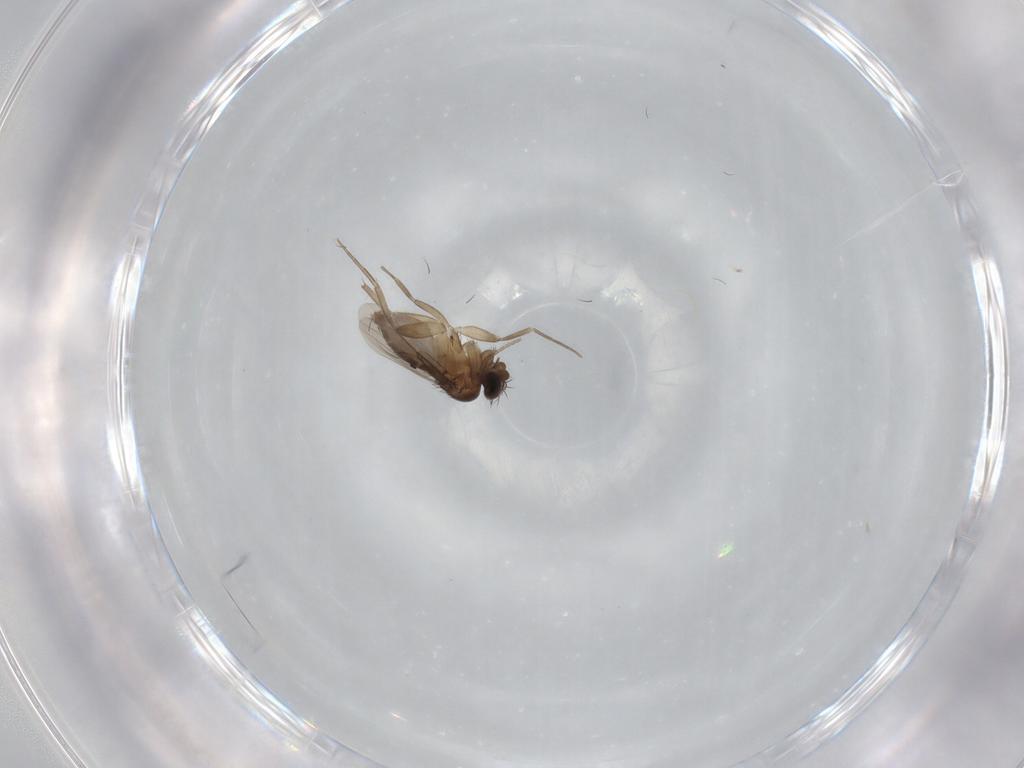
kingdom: Animalia
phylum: Arthropoda
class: Insecta
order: Diptera
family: Phoridae
